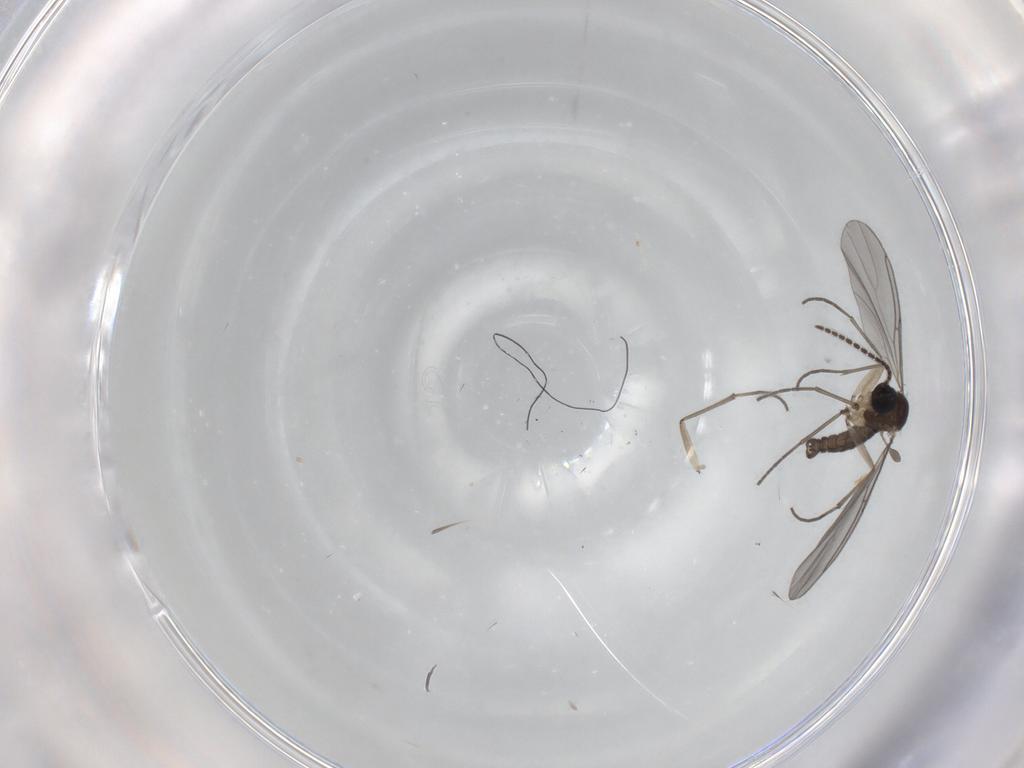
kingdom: Animalia
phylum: Arthropoda
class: Insecta
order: Diptera
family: Sciaridae
